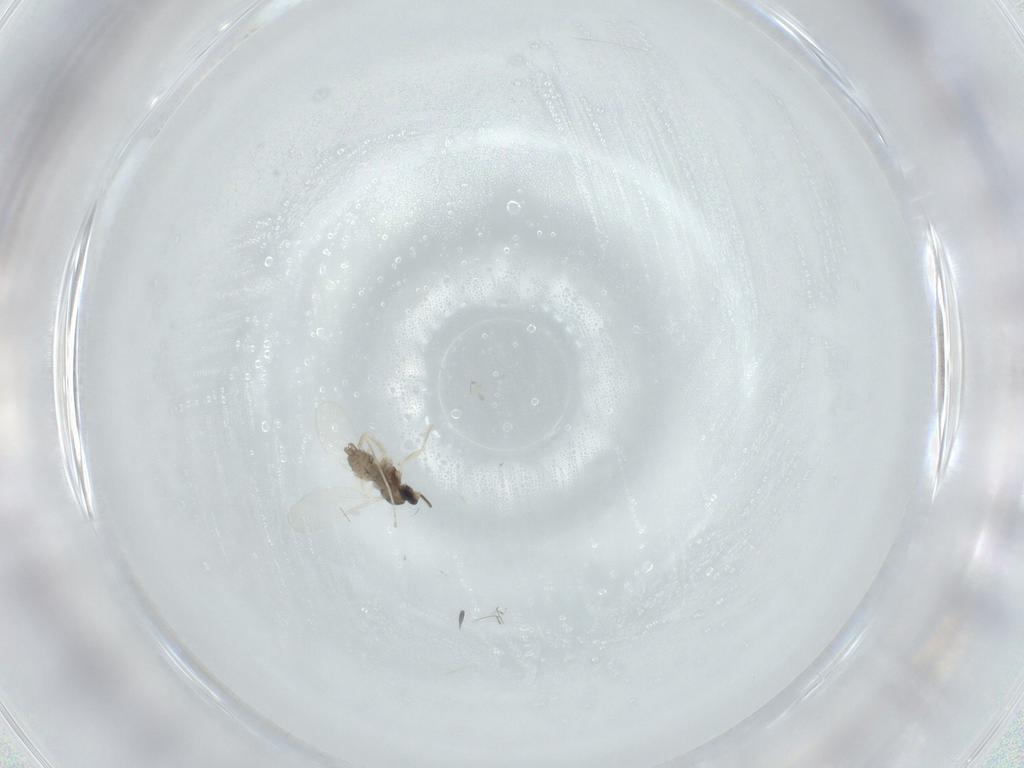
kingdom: Animalia
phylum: Arthropoda
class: Insecta
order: Diptera
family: Cecidomyiidae
